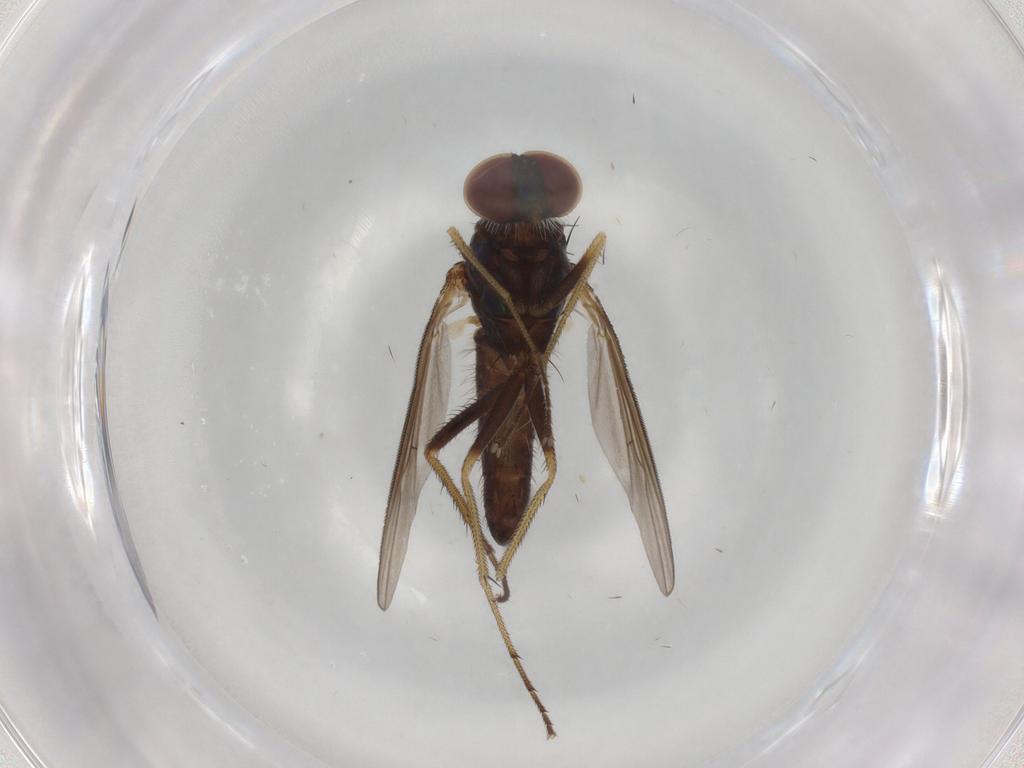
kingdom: Animalia
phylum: Arthropoda
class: Insecta
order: Diptera
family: Dolichopodidae
